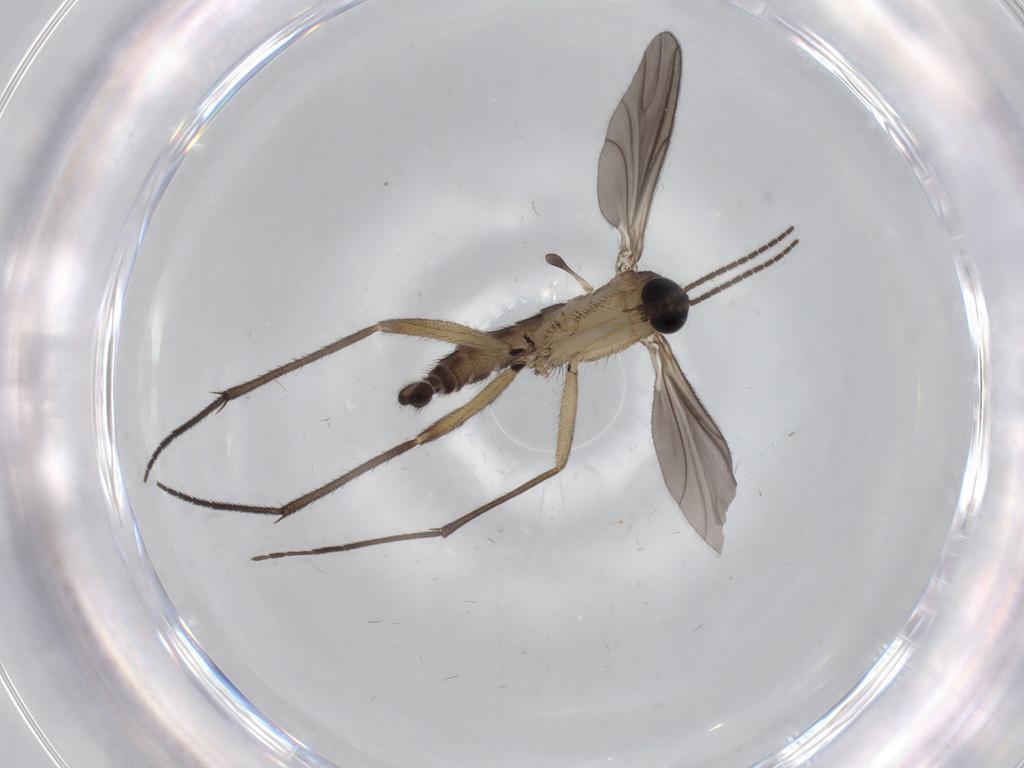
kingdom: Animalia
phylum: Arthropoda
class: Insecta
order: Diptera
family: Sciaridae
